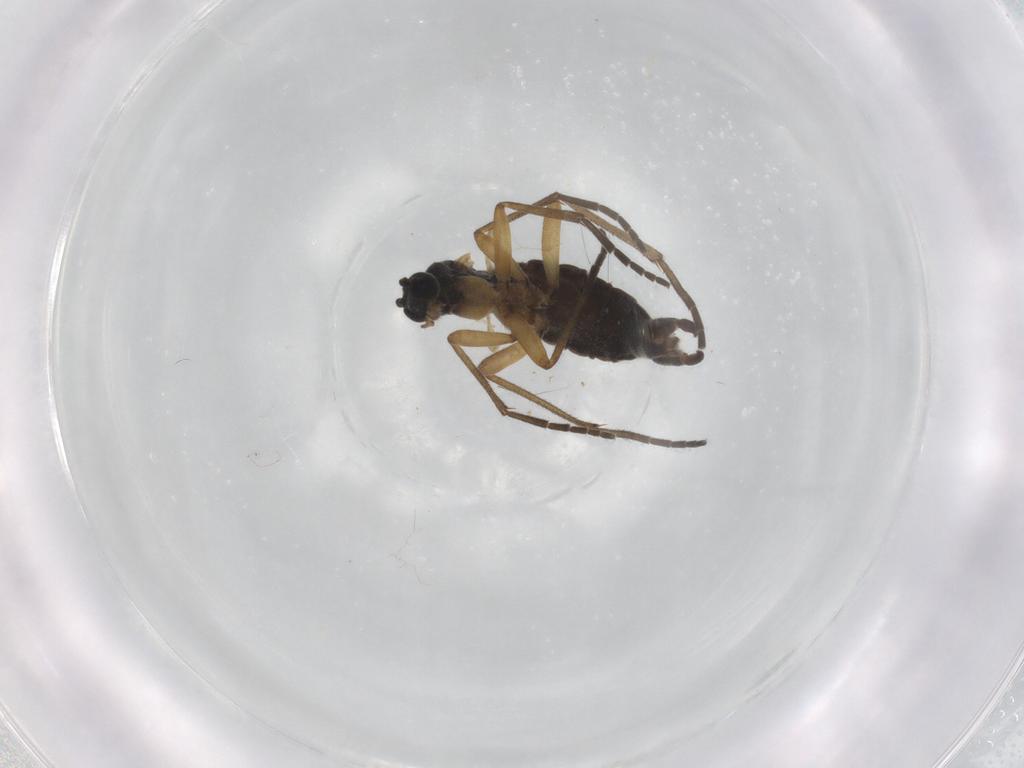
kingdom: Animalia
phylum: Arthropoda
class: Insecta
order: Diptera
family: Sciaridae
